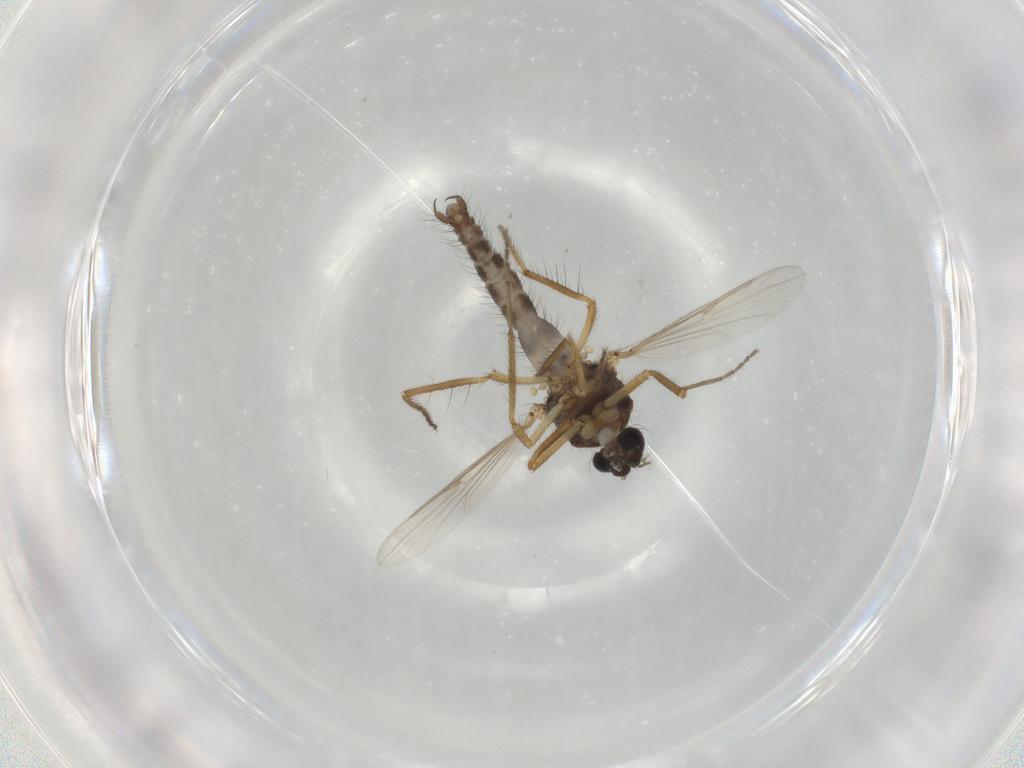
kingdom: Animalia
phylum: Arthropoda
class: Insecta
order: Diptera
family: Ceratopogonidae
